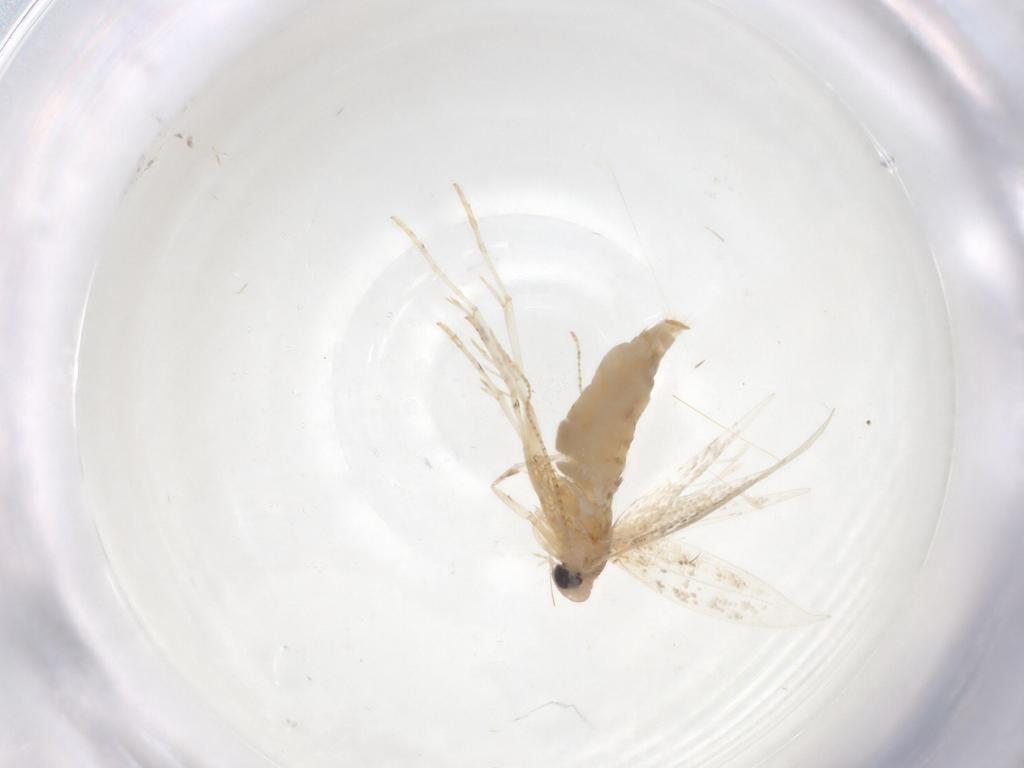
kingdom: Animalia
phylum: Arthropoda
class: Insecta
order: Lepidoptera
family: Gracillariidae
